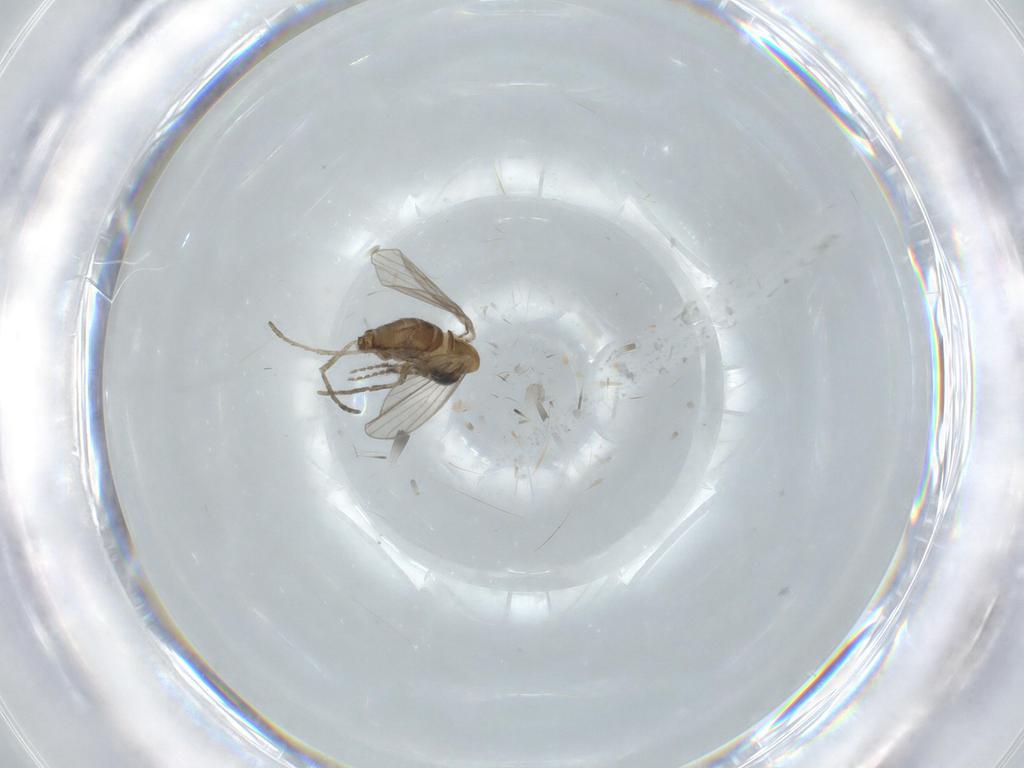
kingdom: Animalia
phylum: Arthropoda
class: Insecta
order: Diptera
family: Psychodidae
